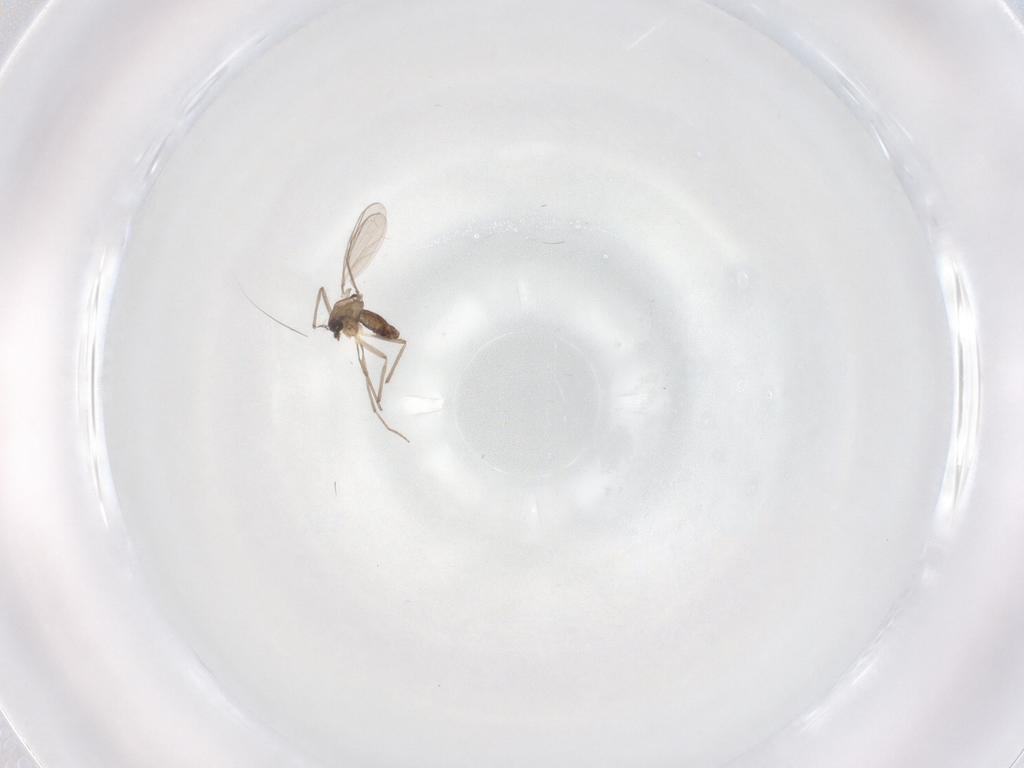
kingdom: Animalia
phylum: Arthropoda
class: Insecta
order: Diptera
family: Chironomidae
